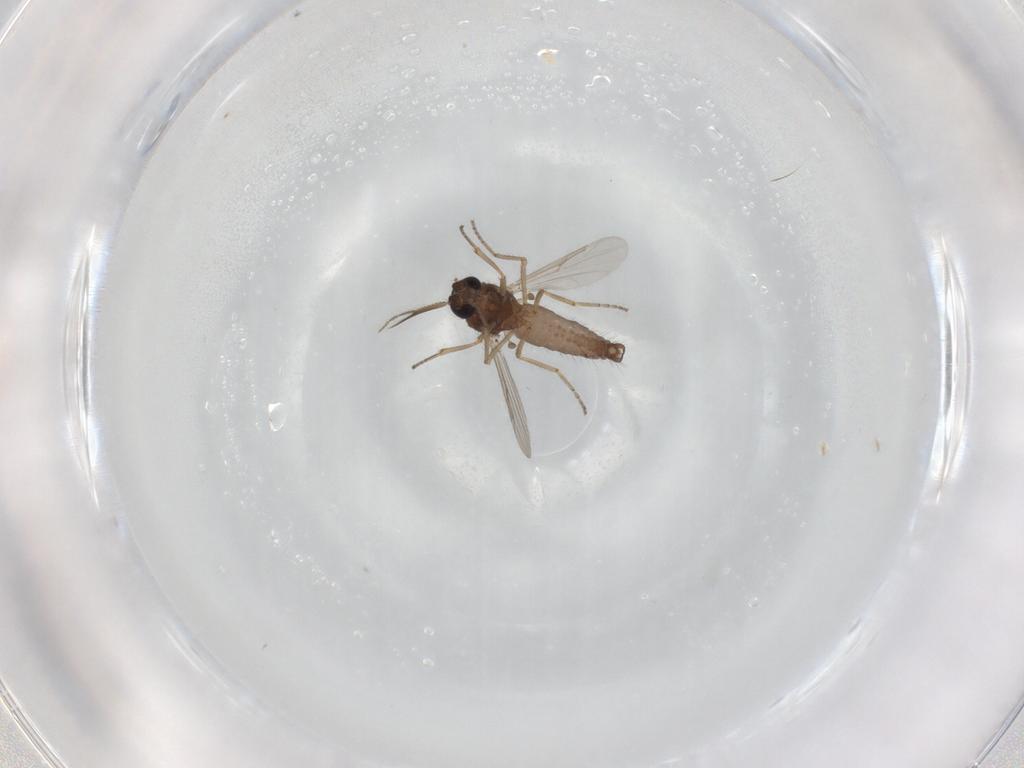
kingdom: Animalia
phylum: Arthropoda
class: Insecta
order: Diptera
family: Ceratopogonidae
